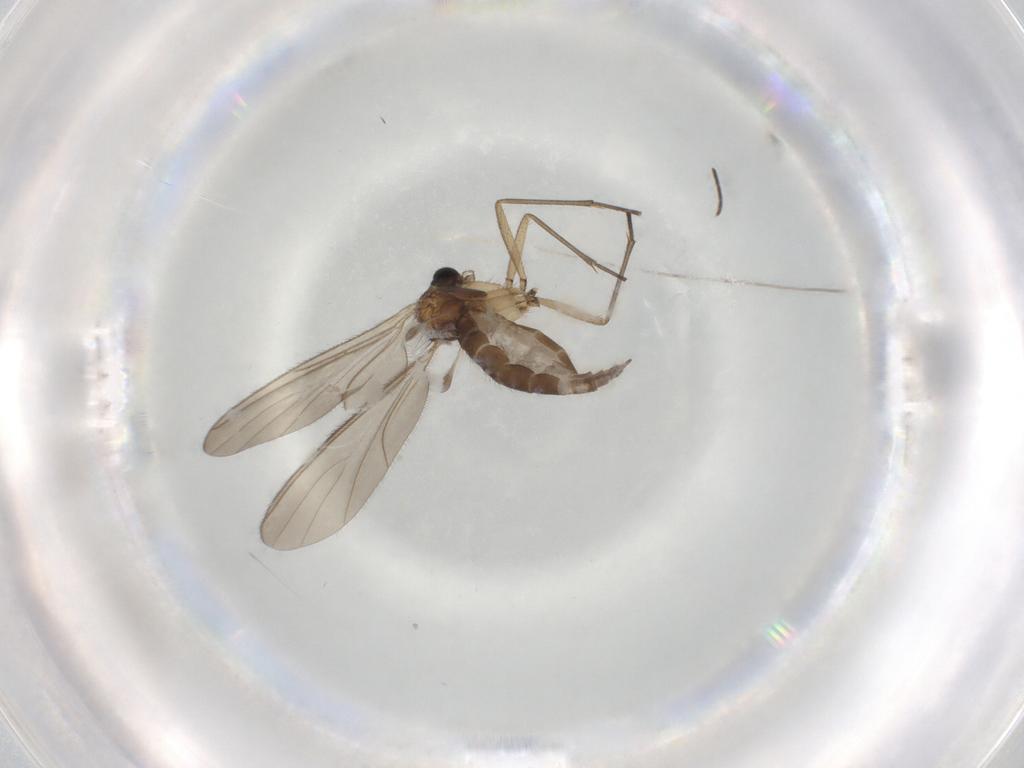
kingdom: Animalia
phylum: Arthropoda
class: Insecta
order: Diptera
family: Sciaridae
